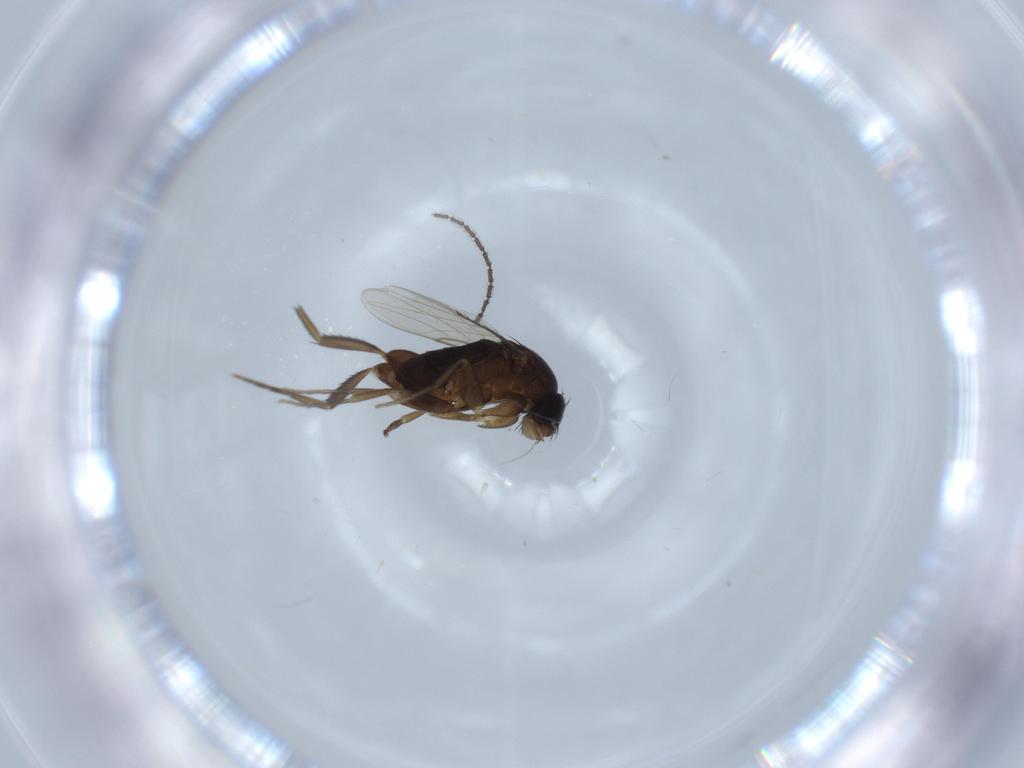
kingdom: Animalia
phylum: Arthropoda
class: Insecta
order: Diptera
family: Phoridae
